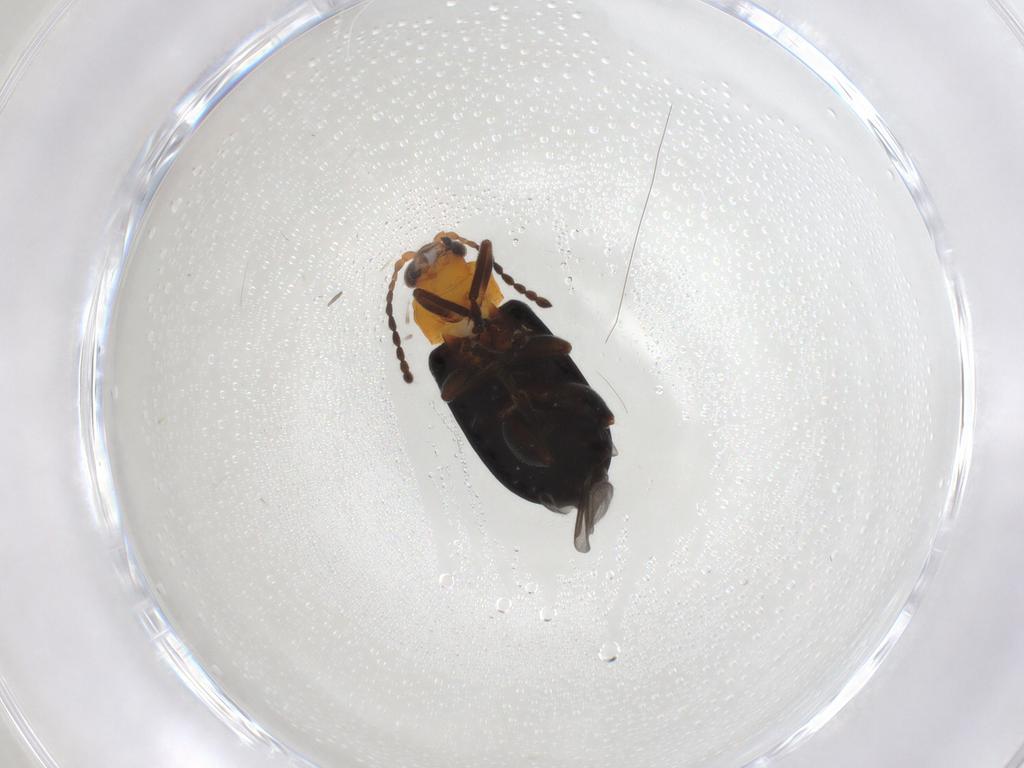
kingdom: Animalia
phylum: Arthropoda
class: Insecta
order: Coleoptera
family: Chrysomelidae
